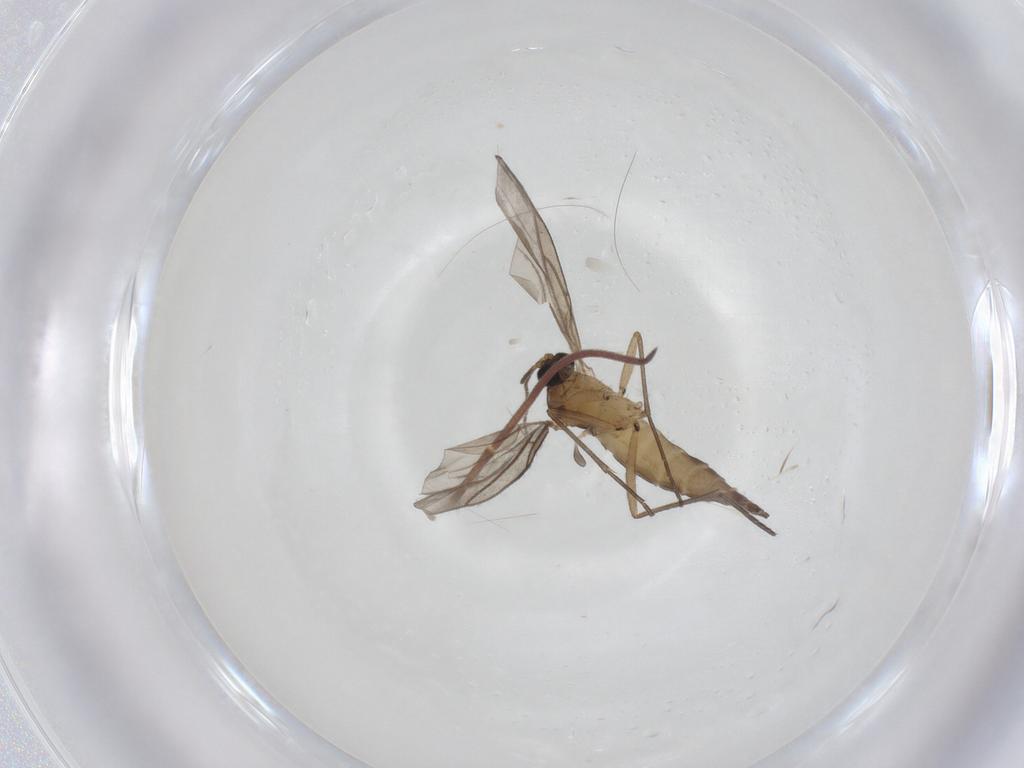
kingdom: Animalia
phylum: Arthropoda
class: Insecta
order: Diptera
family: Sciaridae
